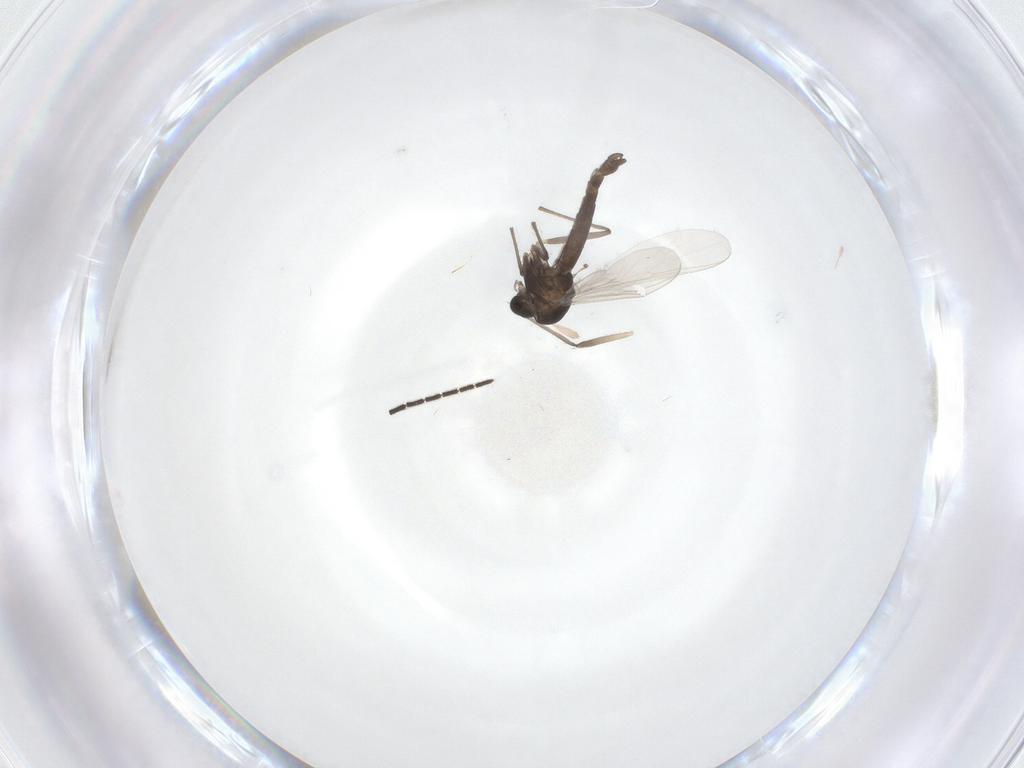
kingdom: Animalia
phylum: Arthropoda
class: Insecta
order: Diptera
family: Chironomidae
